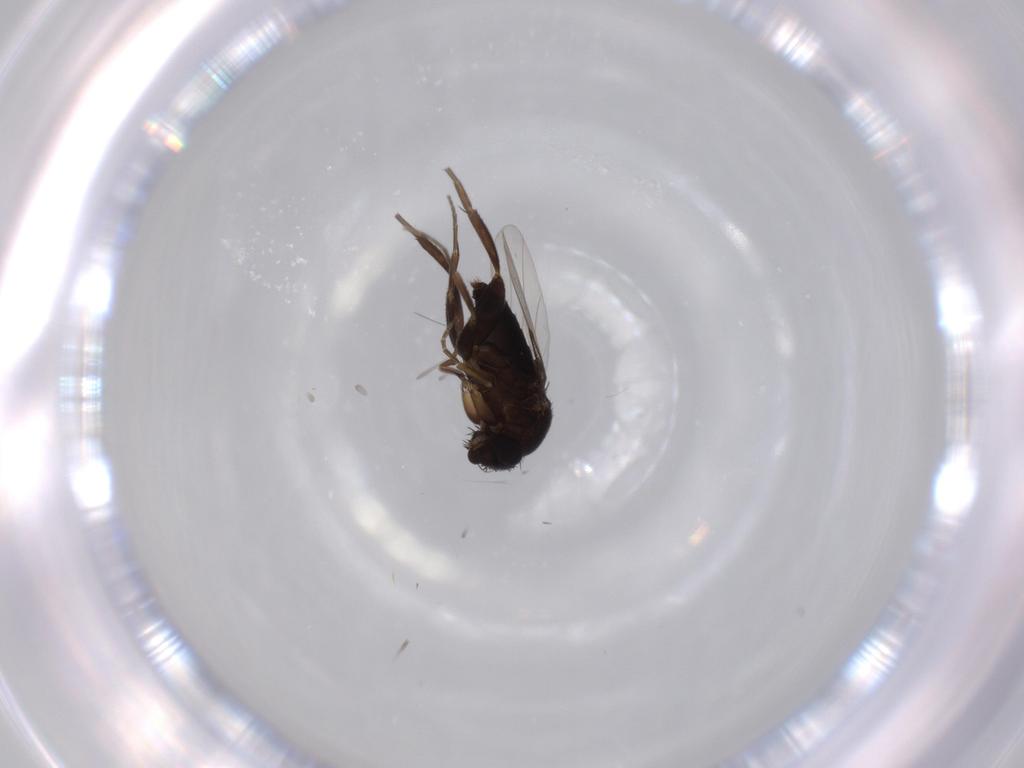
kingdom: Animalia
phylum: Arthropoda
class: Insecta
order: Diptera
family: Phoridae
